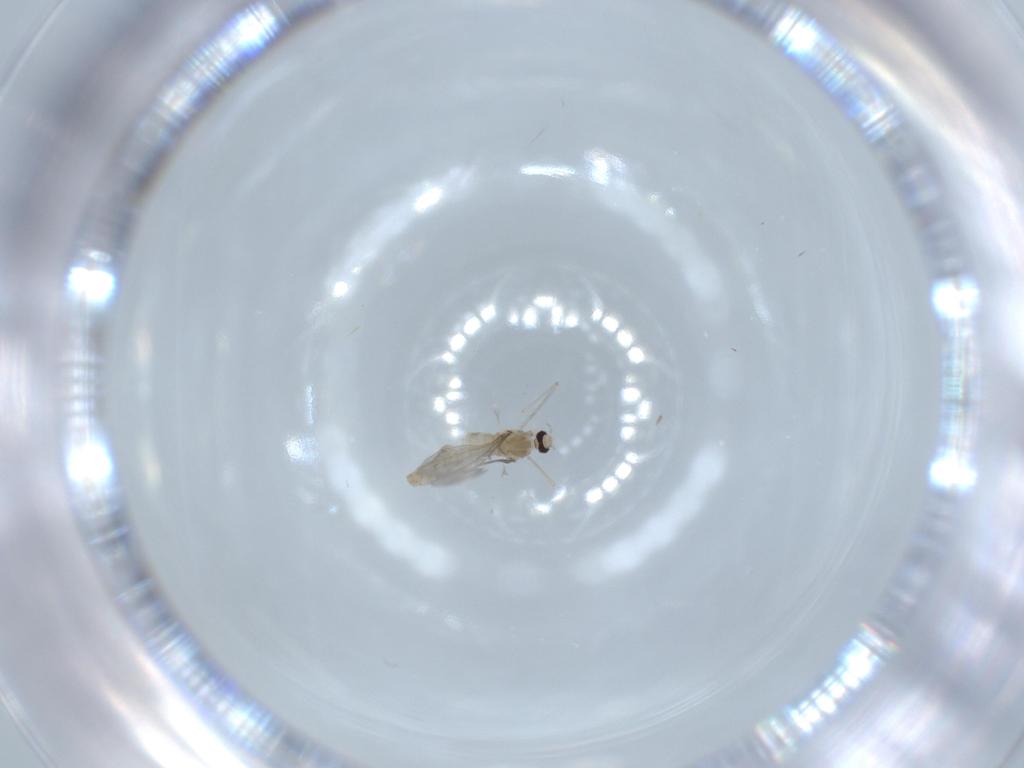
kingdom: Animalia
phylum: Arthropoda
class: Insecta
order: Diptera
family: Cecidomyiidae
